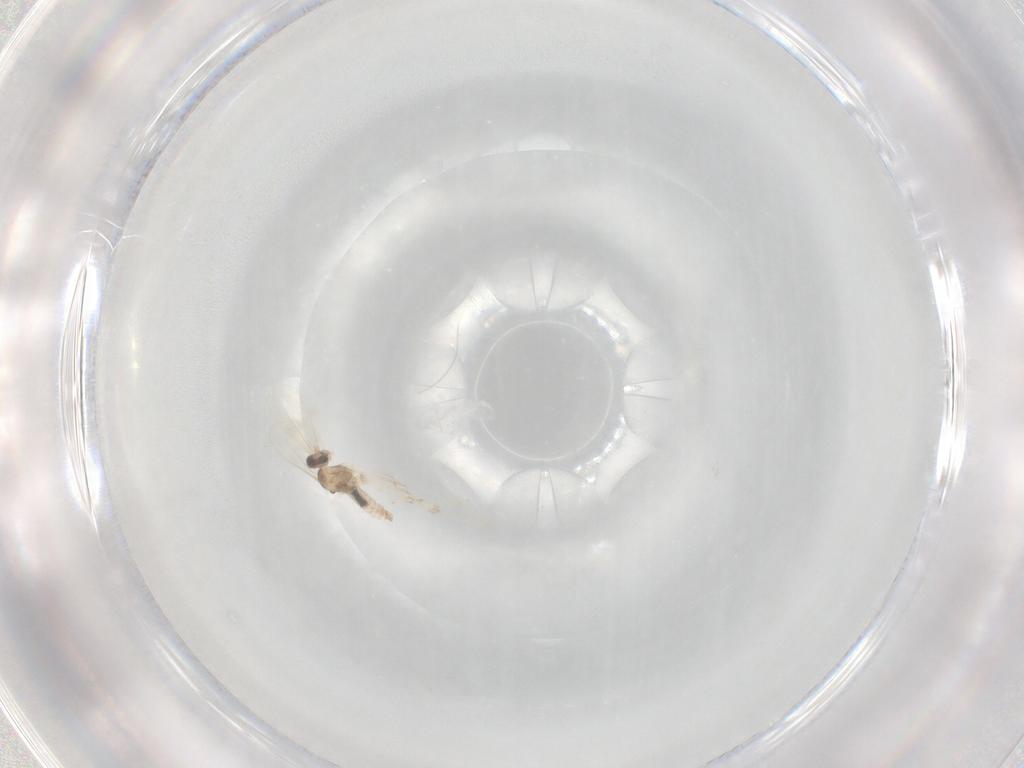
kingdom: Animalia
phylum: Arthropoda
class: Insecta
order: Diptera
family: Cecidomyiidae
